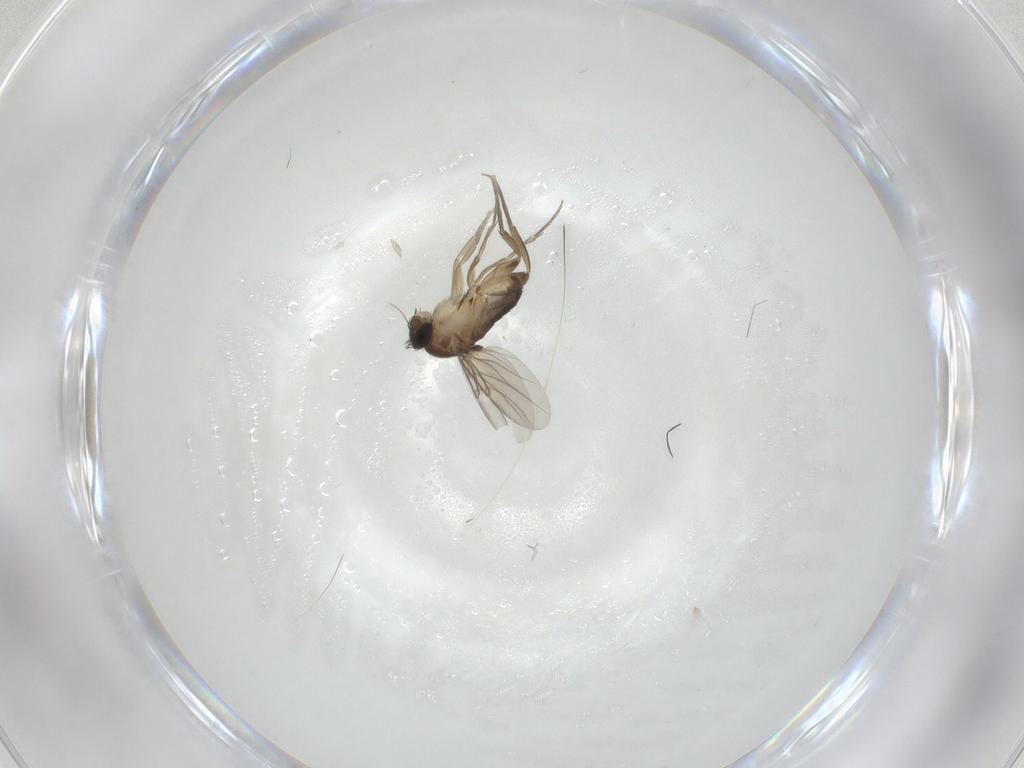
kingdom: Animalia
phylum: Arthropoda
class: Insecta
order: Diptera
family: Phoridae
